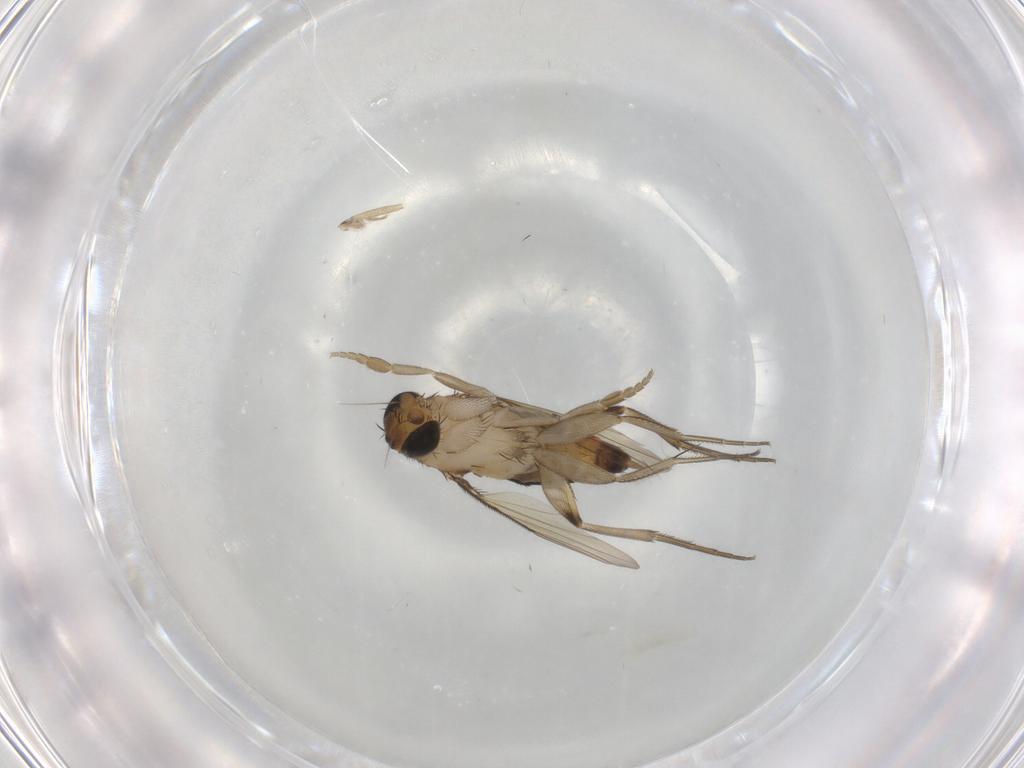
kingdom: Animalia
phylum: Arthropoda
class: Insecta
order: Diptera
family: Cecidomyiidae
